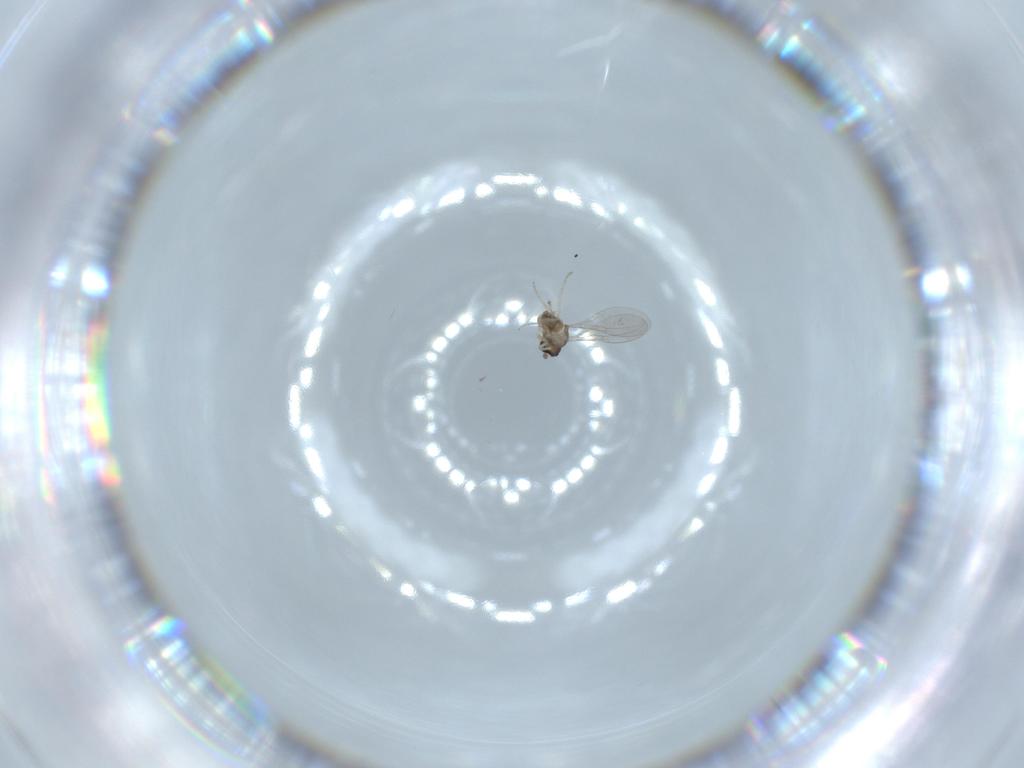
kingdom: Animalia
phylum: Arthropoda
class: Insecta
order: Diptera
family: Cecidomyiidae
